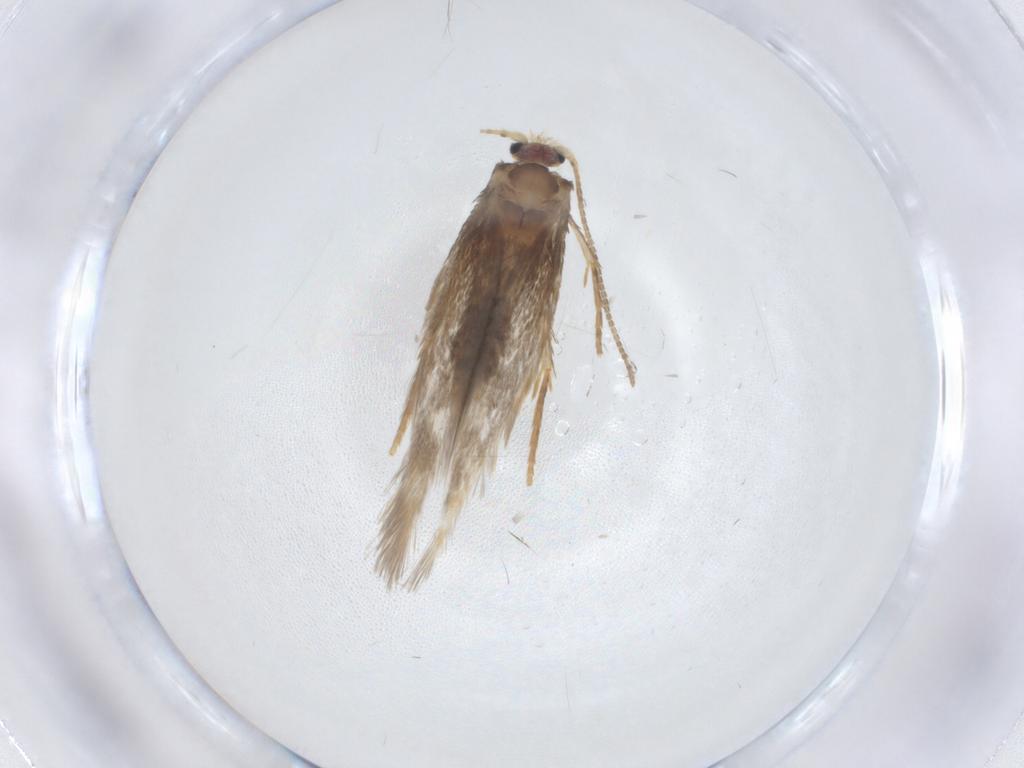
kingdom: Animalia
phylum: Arthropoda
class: Insecta
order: Lepidoptera
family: Nepticulidae
